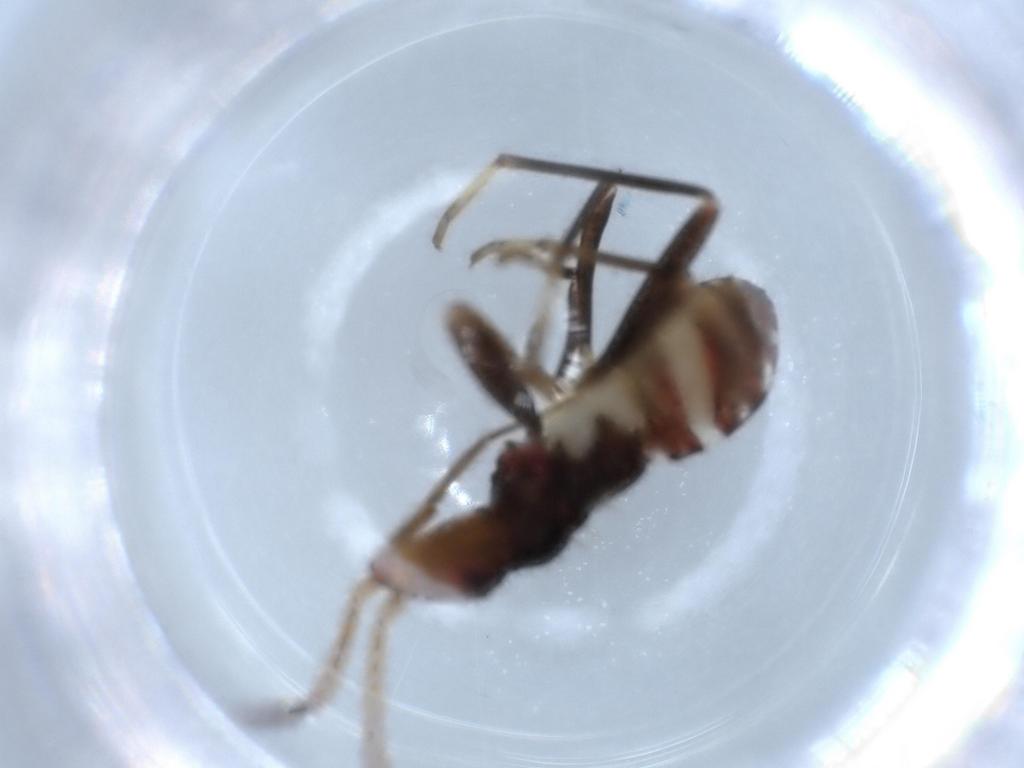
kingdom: Animalia
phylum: Arthropoda
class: Insecta
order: Hemiptera
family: Rhyparochromidae
